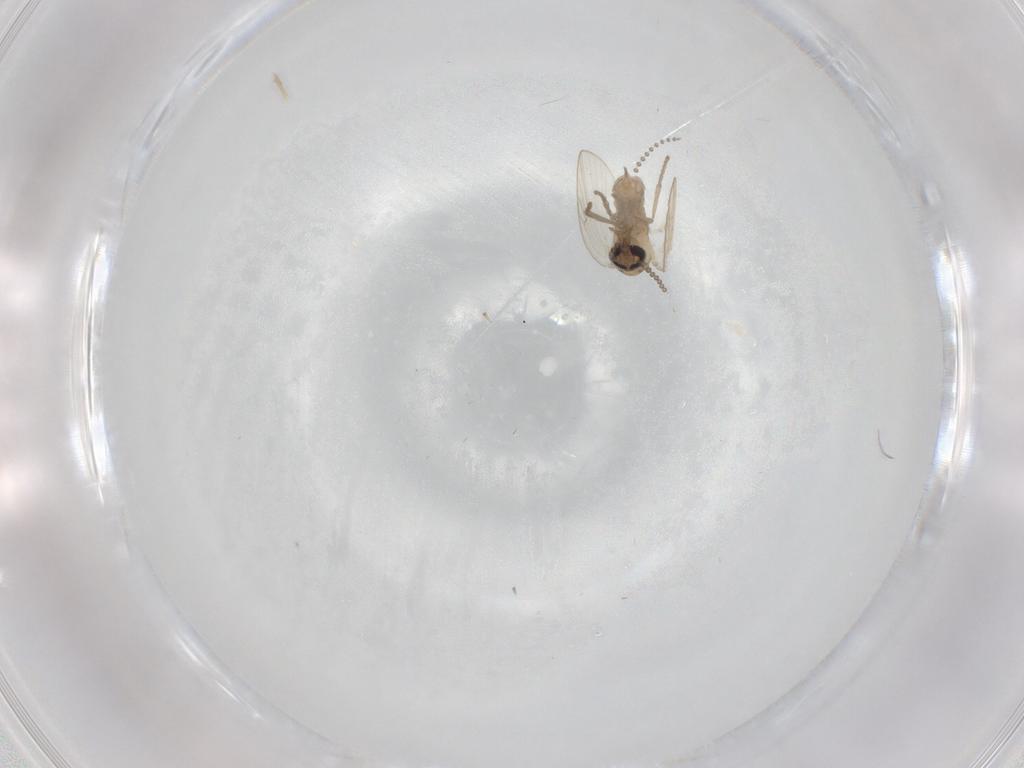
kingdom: Animalia
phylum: Arthropoda
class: Insecta
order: Diptera
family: Psychodidae
